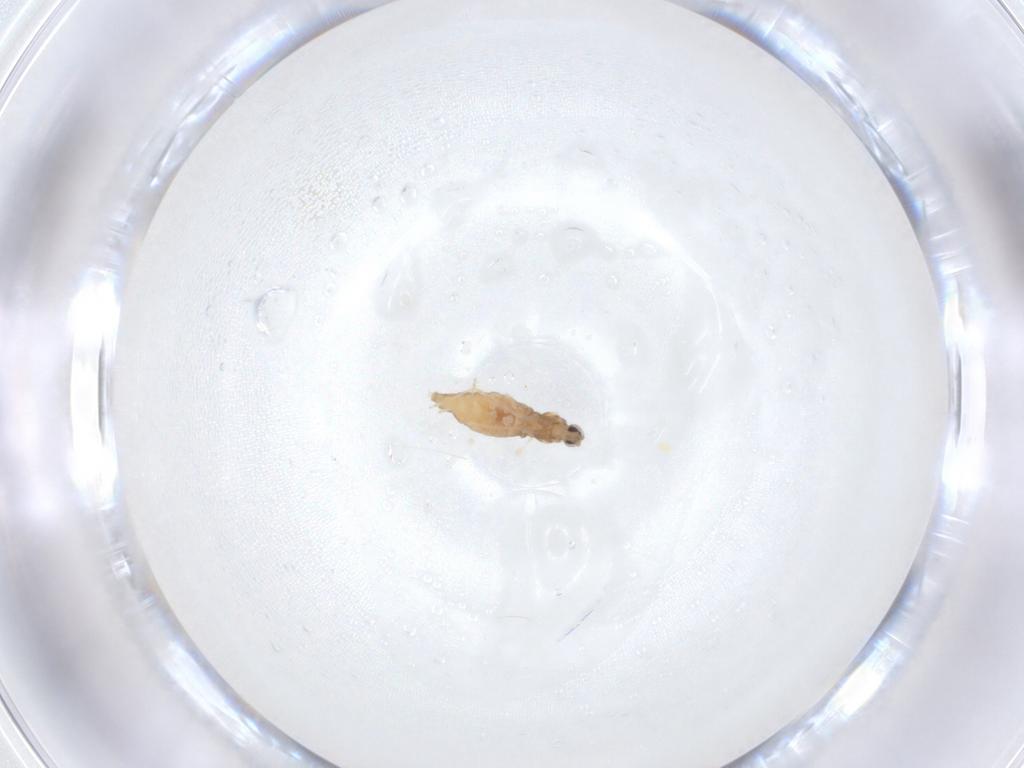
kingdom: Animalia
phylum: Arthropoda
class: Insecta
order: Diptera
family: Cecidomyiidae
